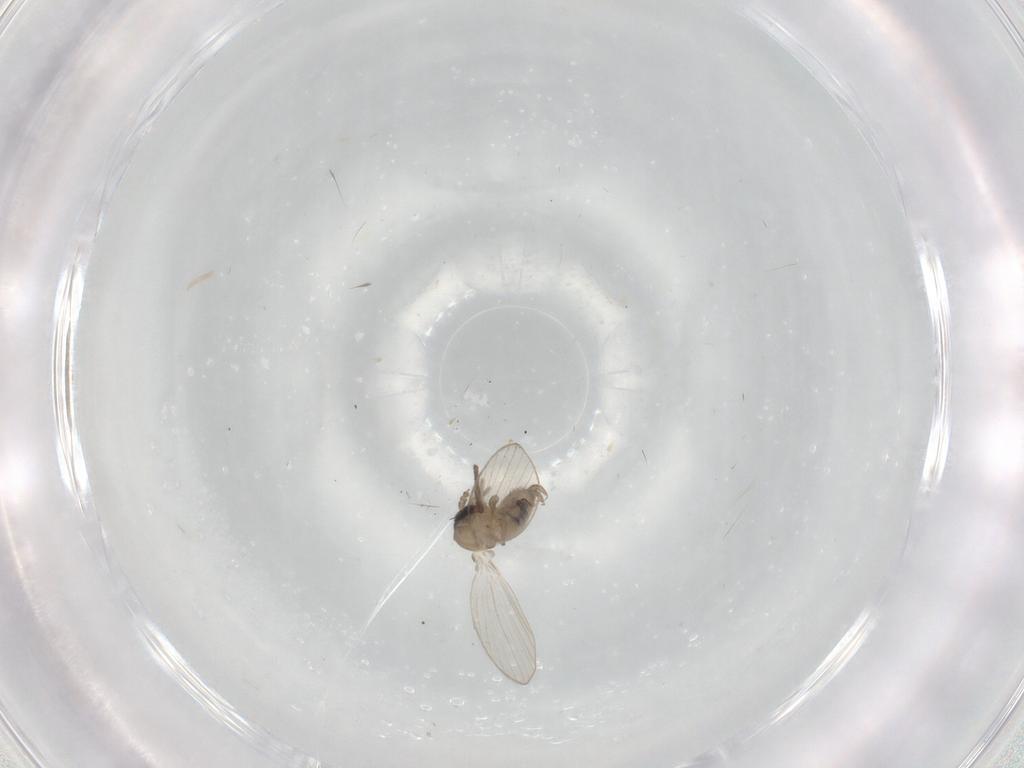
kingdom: Animalia
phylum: Arthropoda
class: Insecta
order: Diptera
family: Psychodidae
